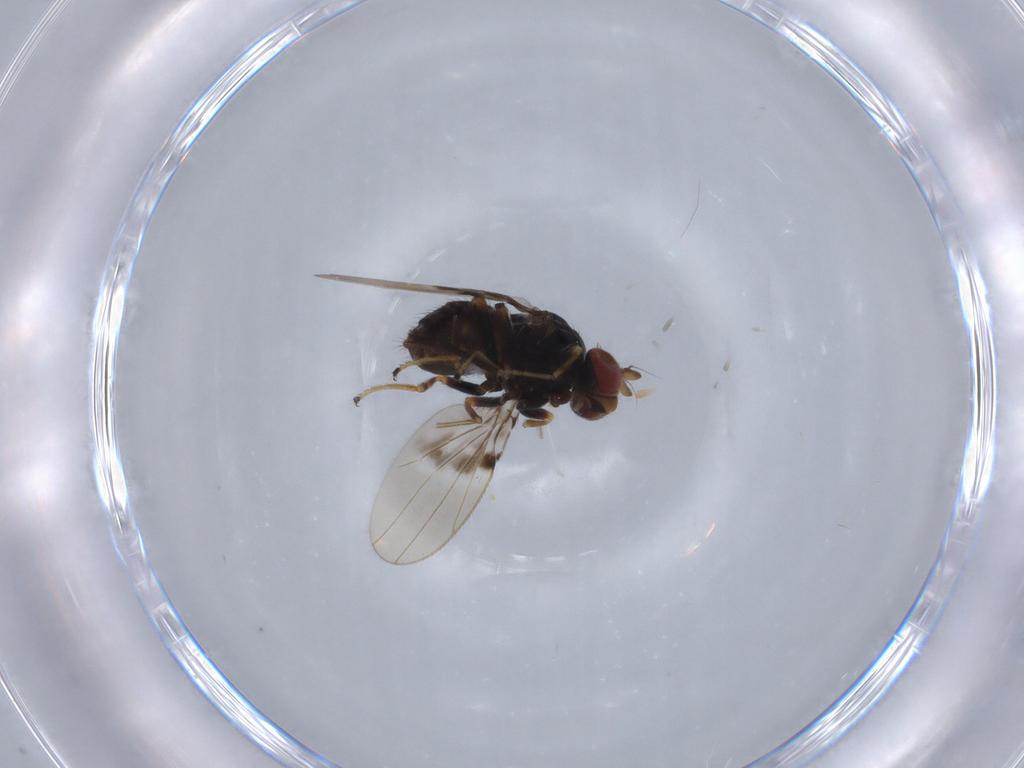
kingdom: Animalia
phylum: Arthropoda
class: Insecta
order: Diptera
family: Ephydridae
